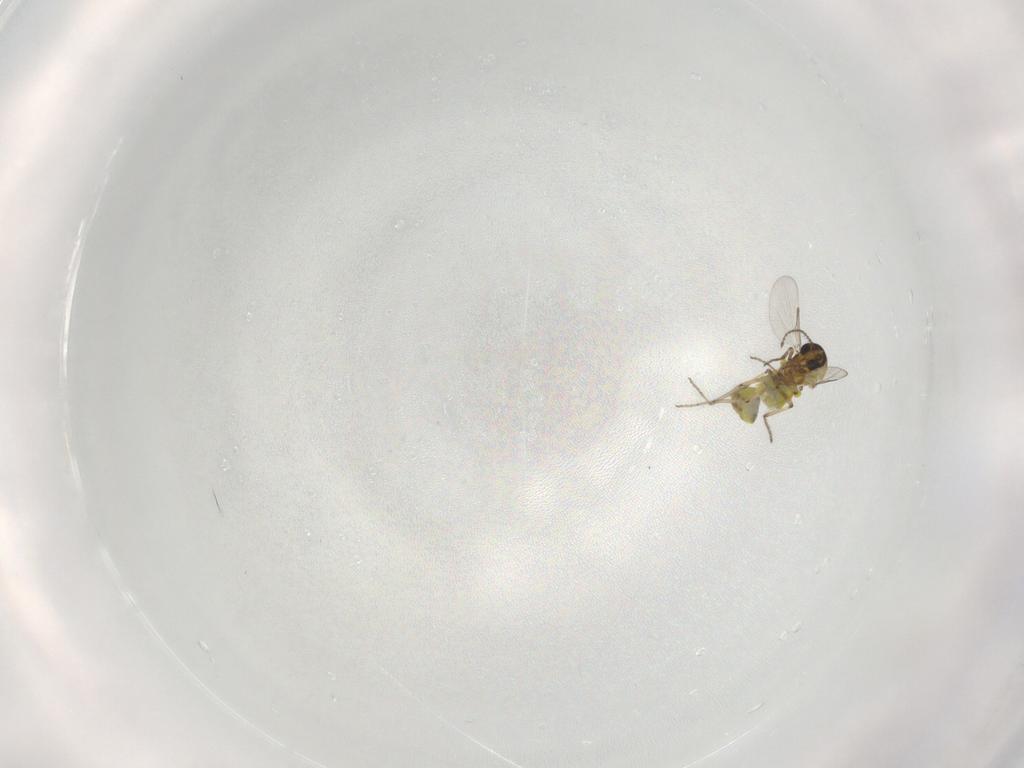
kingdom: Animalia
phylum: Arthropoda
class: Insecta
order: Diptera
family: Ceratopogonidae
